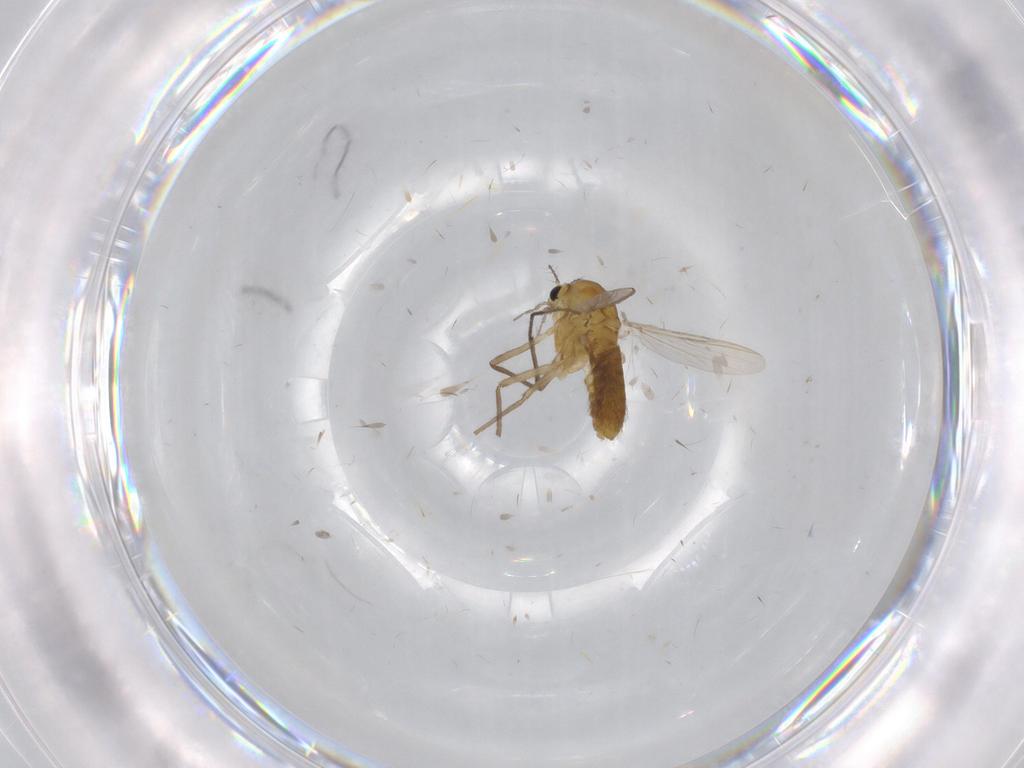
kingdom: Animalia
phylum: Arthropoda
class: Insecta
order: Diptera
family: Chironomidae
